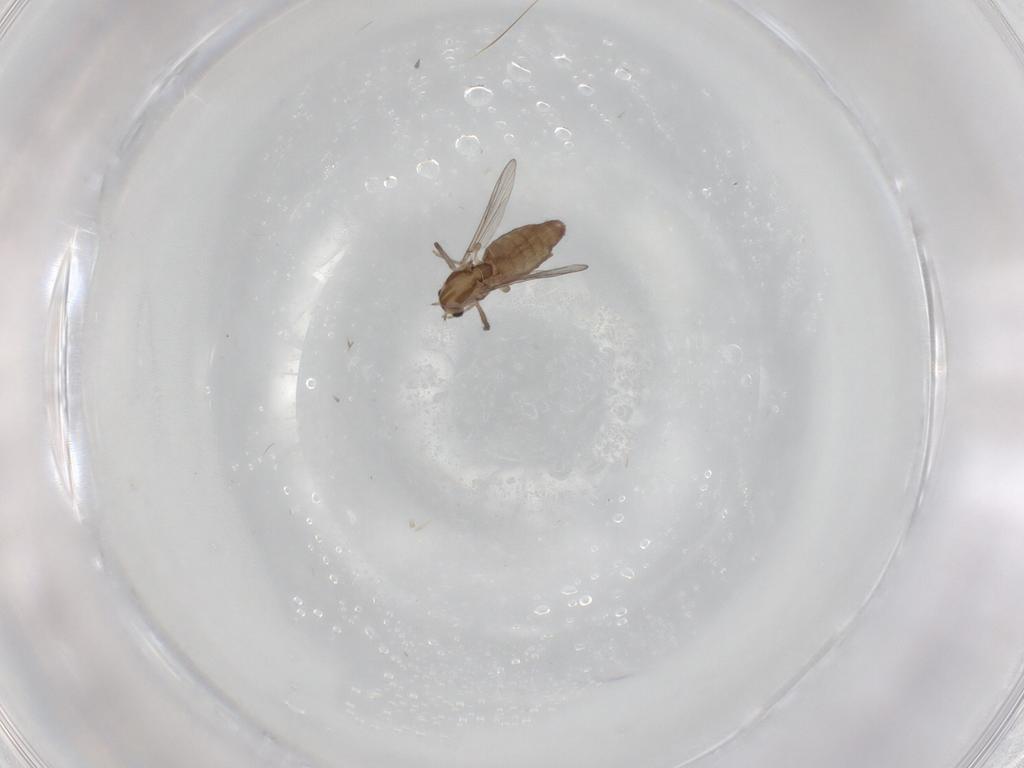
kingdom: Animalia
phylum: Arthropoda
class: Insecta
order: Diptera
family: Chironomidae
